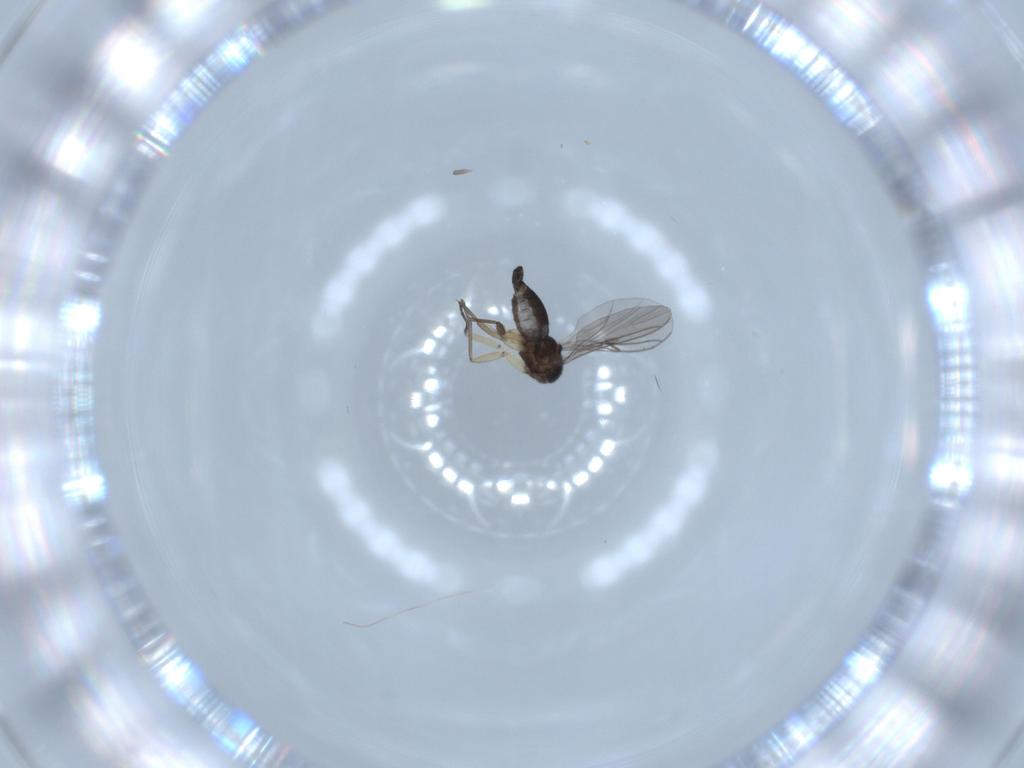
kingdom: Animalia
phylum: Arthropoda
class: Insecta
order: Diptera
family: Sciaridae
